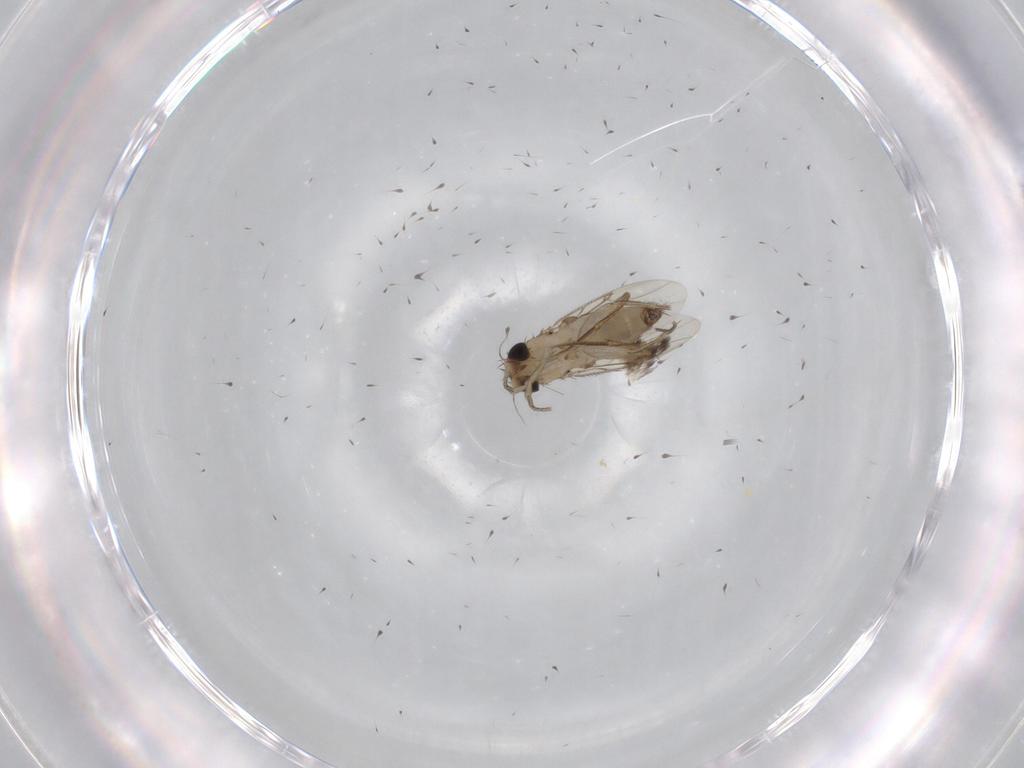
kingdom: Animalia
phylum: Arthropoda
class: Insecta
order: Diptera
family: Phoridae
